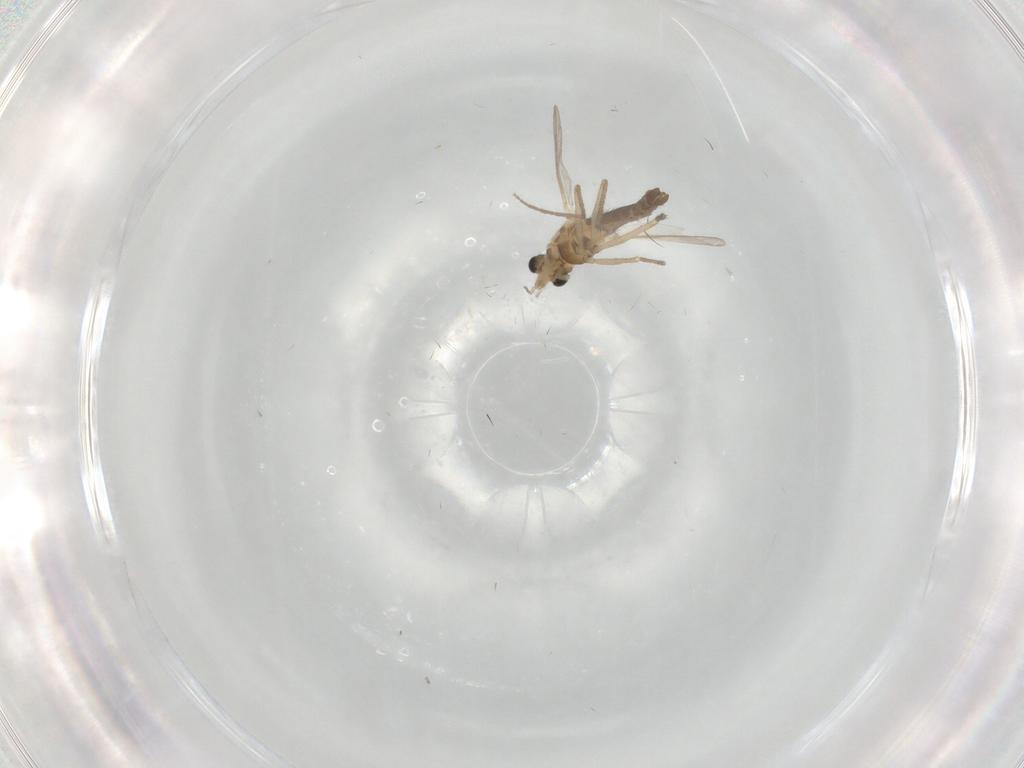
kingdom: Animalia
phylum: Arthropoda
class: Insecta
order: Diptera
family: Chironomidae
